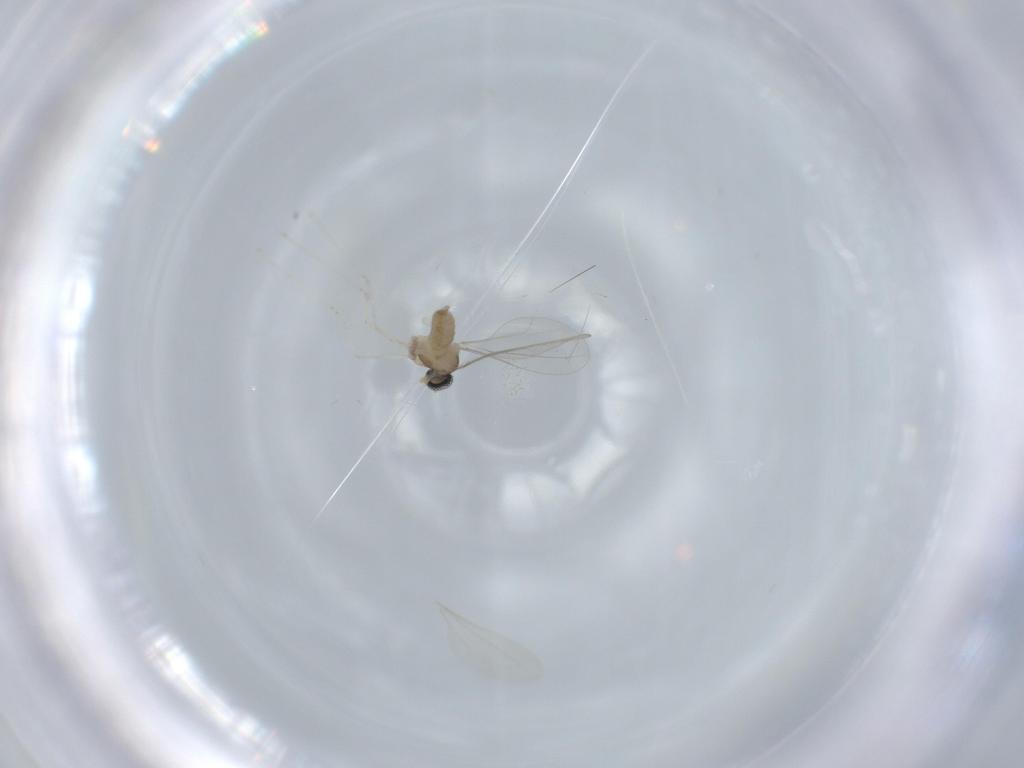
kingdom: Animalia
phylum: Arthropoda
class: Insecta
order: Diptera
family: Cecidomyiidae
